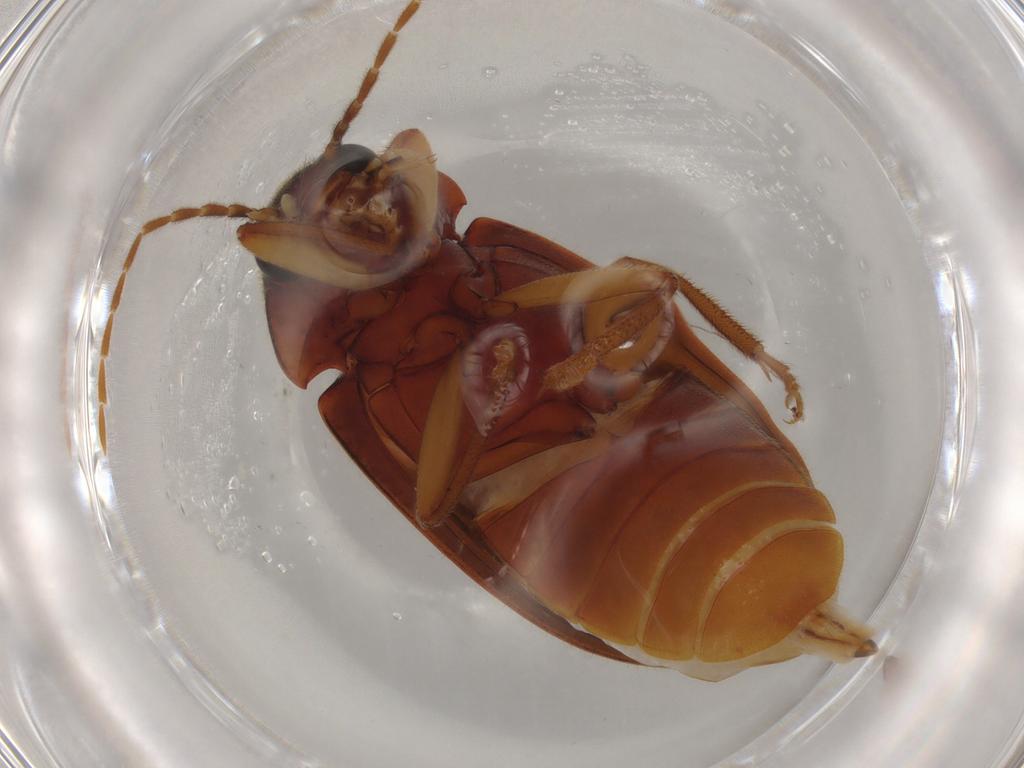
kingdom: Animalia
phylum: Arthropoda
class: Insecta
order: Coleoptera
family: Ptilodactylidae
